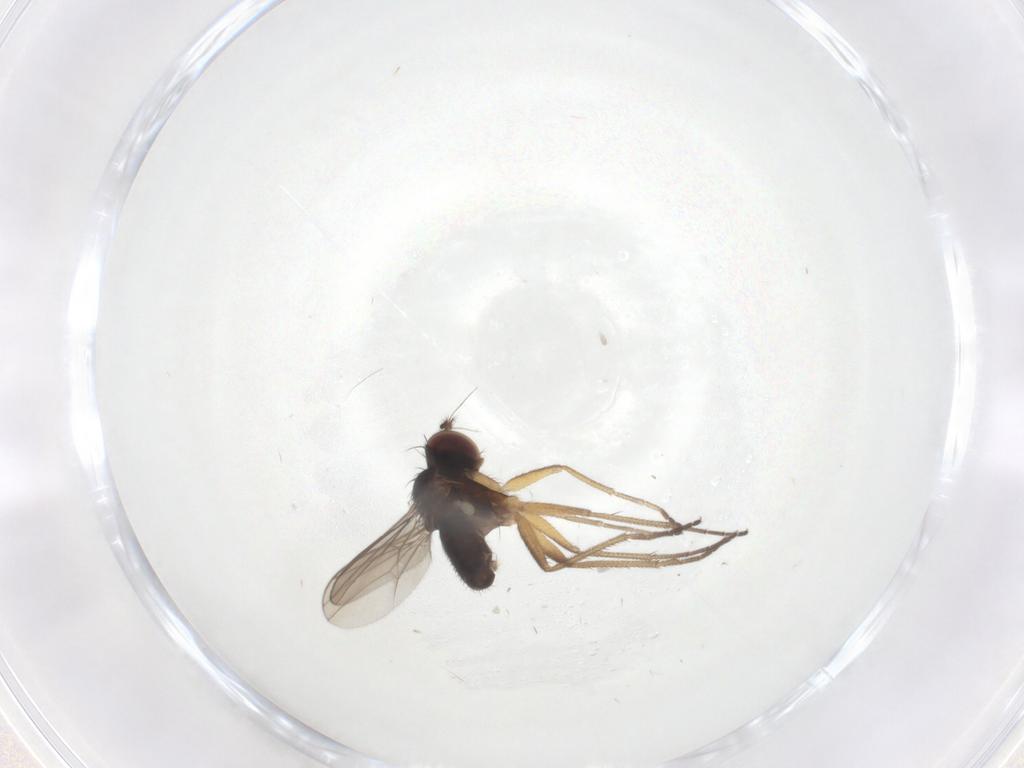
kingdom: Animalia
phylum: Arthropoda
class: Insecta
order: Diptera
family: Dolichopodidae
